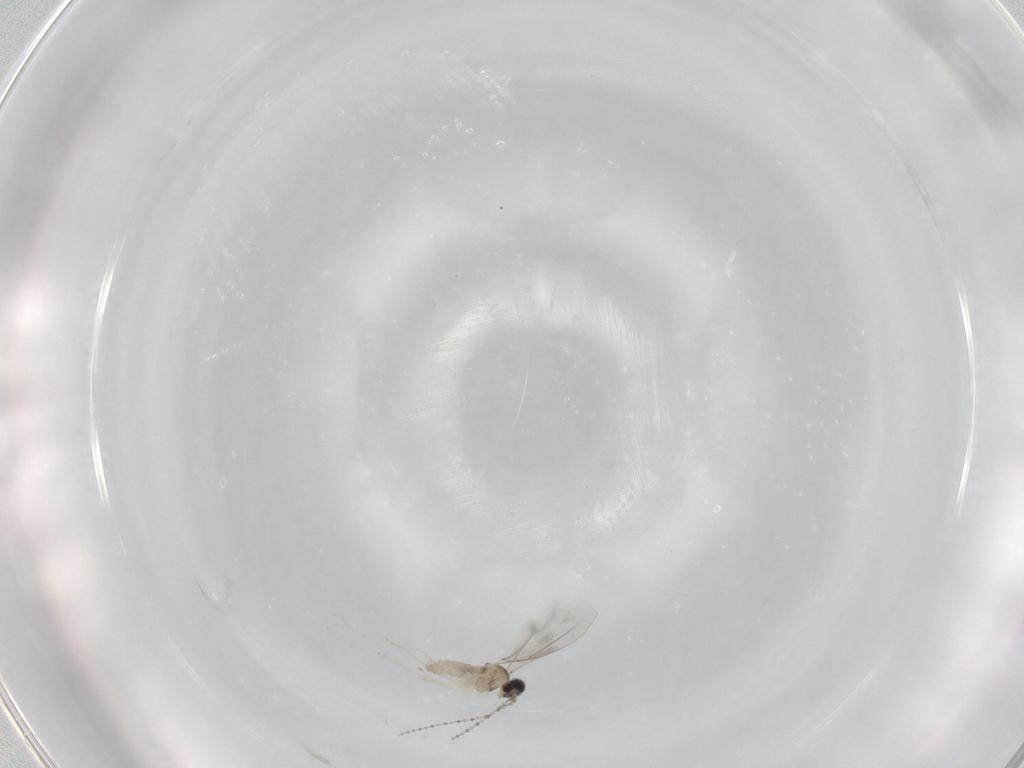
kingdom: Animalia
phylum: Arthropoda
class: Insecta
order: Diptera
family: Cecidomyiidae
